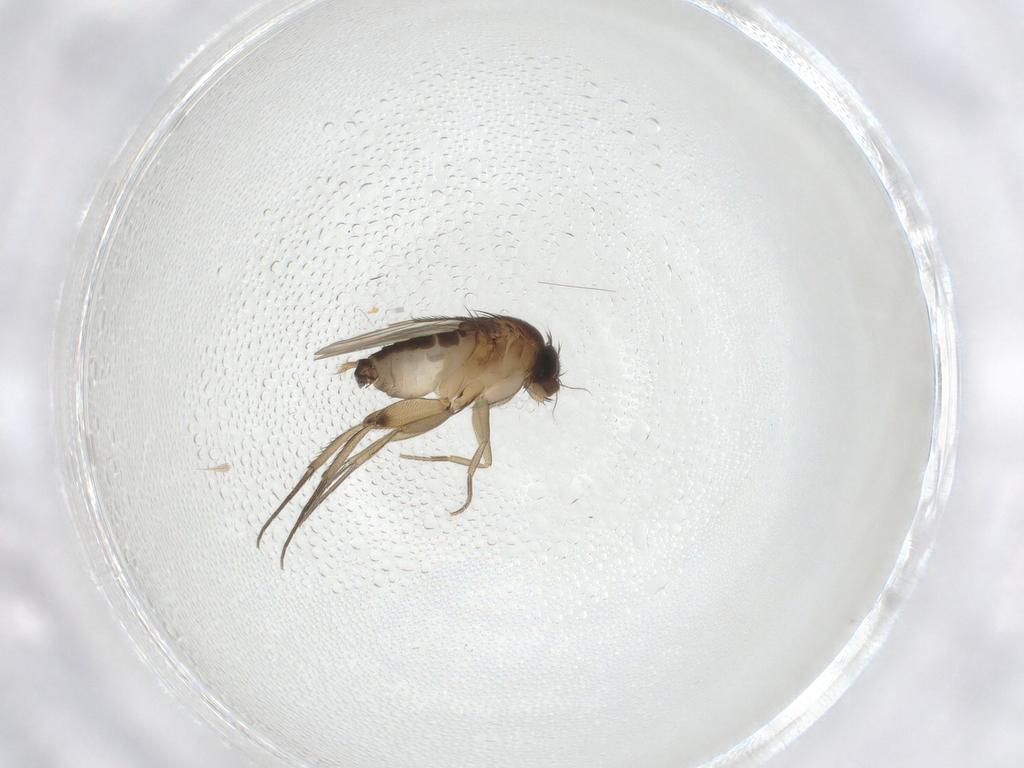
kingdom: Animalia
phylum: Arthropoda
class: Insecta
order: Diptera
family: Phoridae
